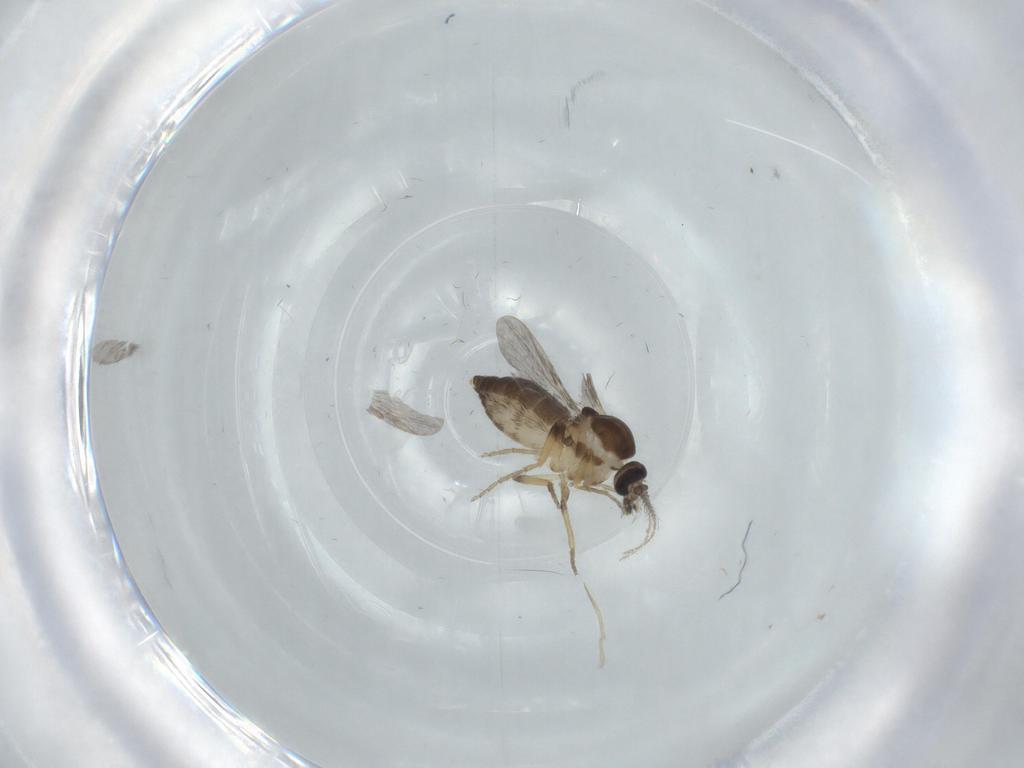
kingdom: Animalia
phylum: Arthropoda
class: Insecta
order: Diptera
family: Ceratopogonidae
